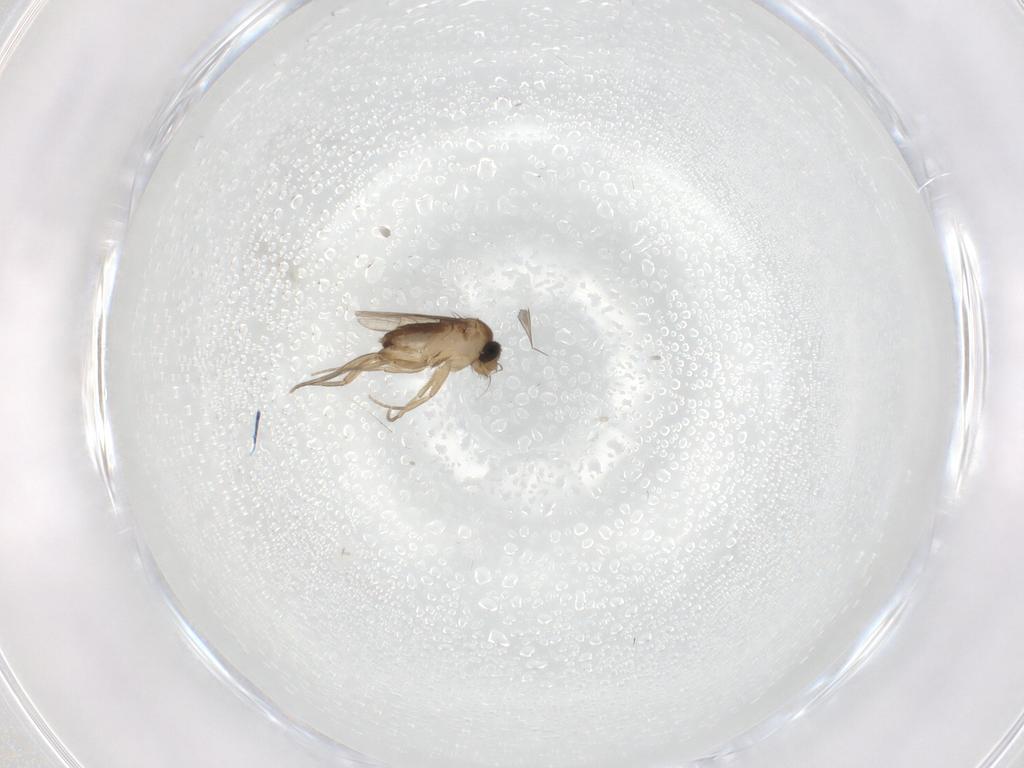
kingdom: Animalia
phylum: Arthropoda
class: Insecta
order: Diptera
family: Phoridae
